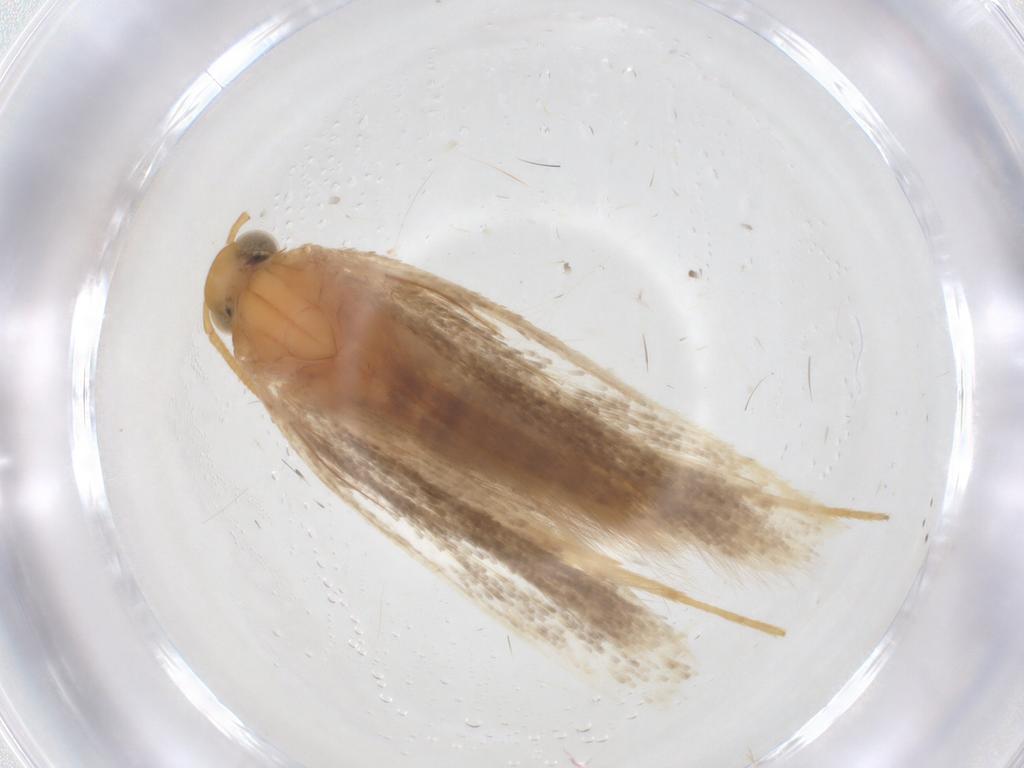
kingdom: Animalia
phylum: Arthropoda
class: Insecta
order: Lepidoptera
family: Gelechiidae
